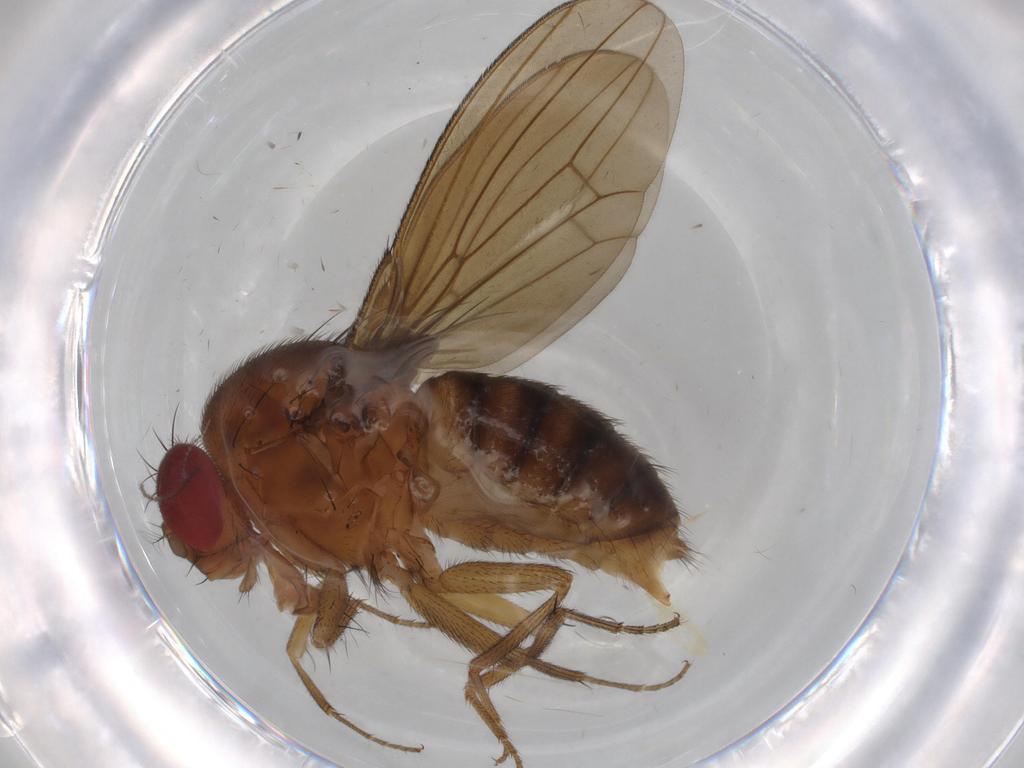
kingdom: Animalia
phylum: Arthropoda
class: Insecta
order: Diptera
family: Drosophilidae
